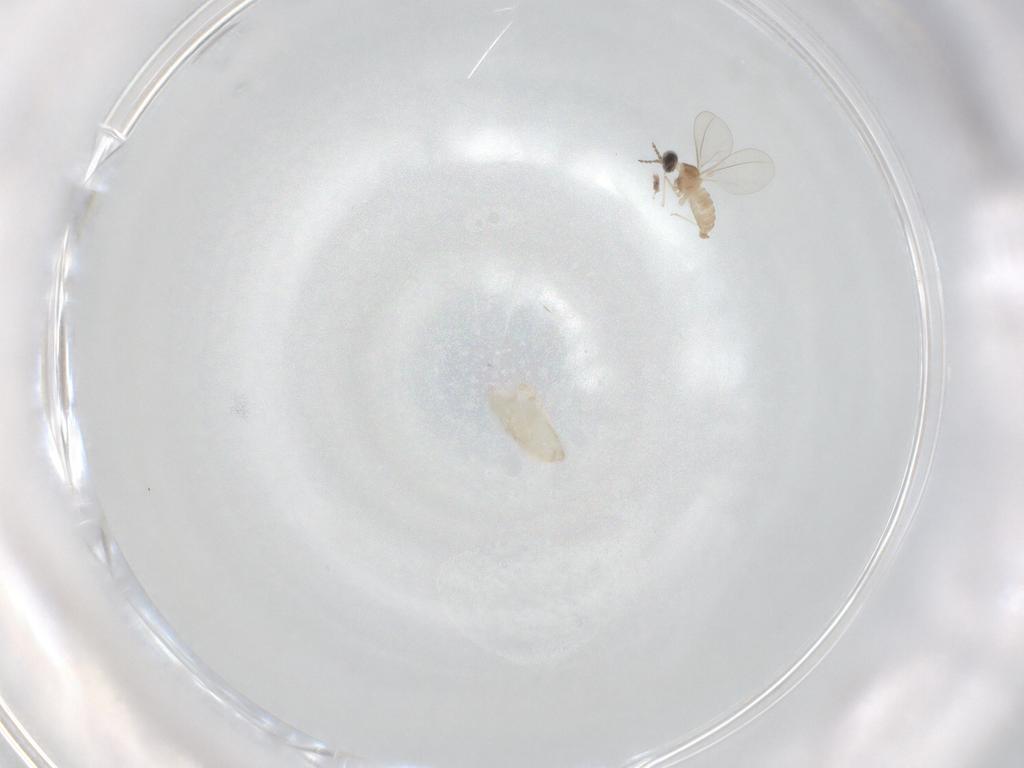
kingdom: Animalia
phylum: Arthropoda
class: Insecta
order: Diptera
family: Cecidomyiidae
